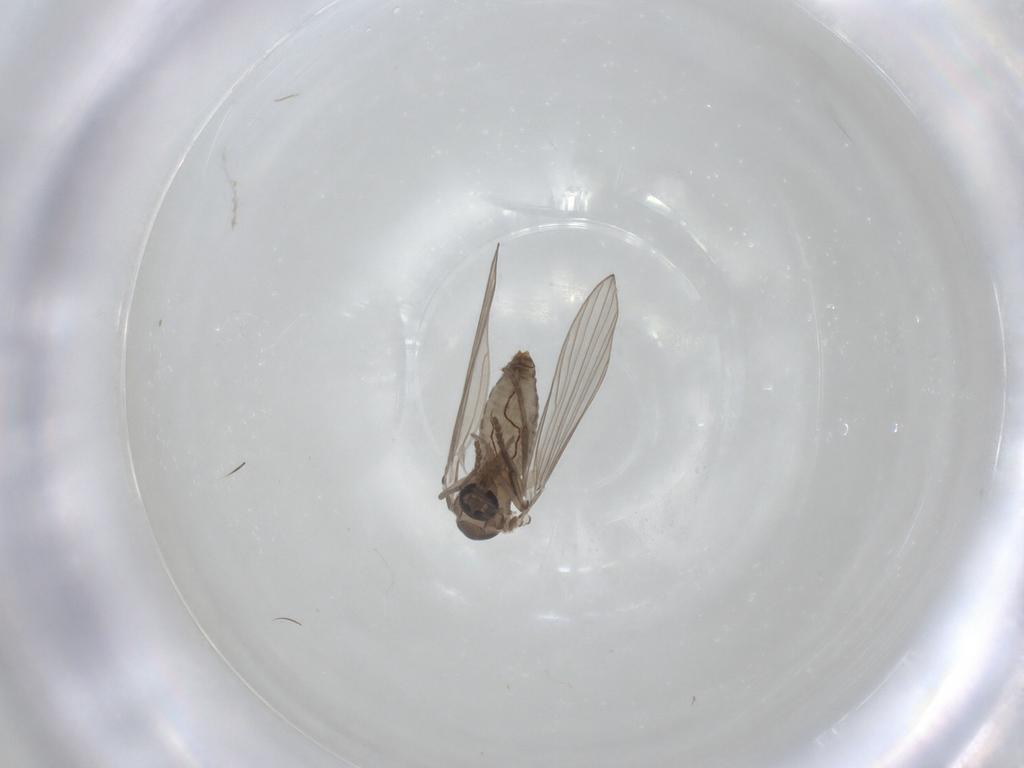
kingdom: Animalia
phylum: Arthropoda
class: Insecta
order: Diptera
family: Psychodidae
